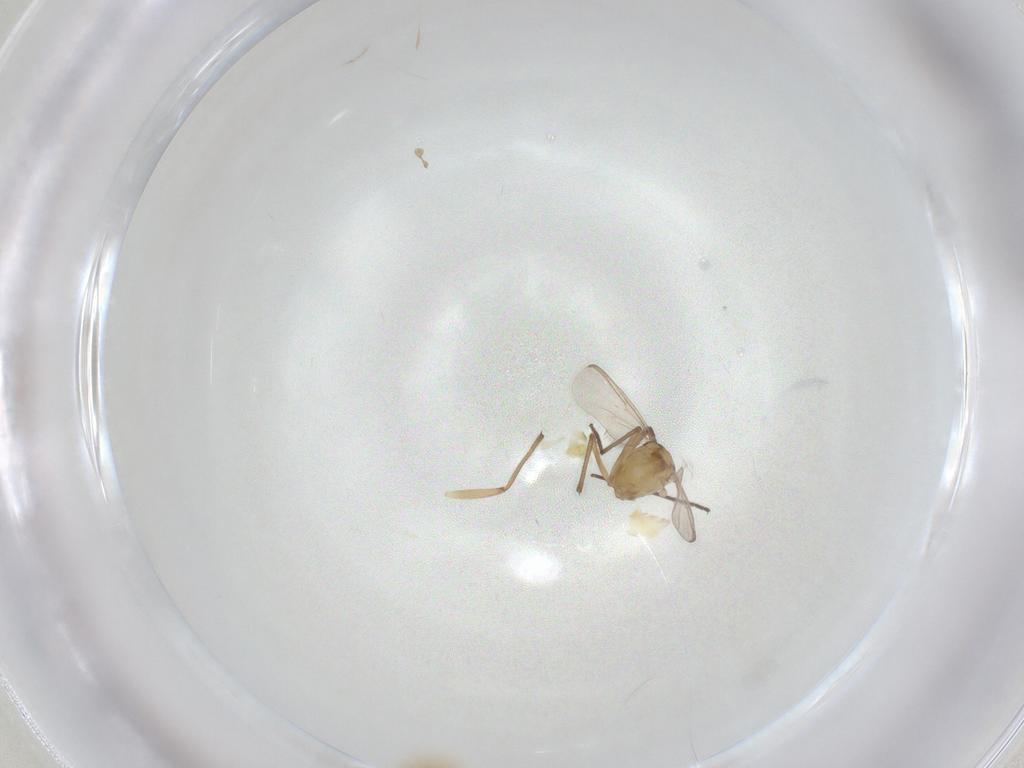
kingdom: Animalia
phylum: Arthropoda
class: Insecta
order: Diptera
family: Chironomidae
